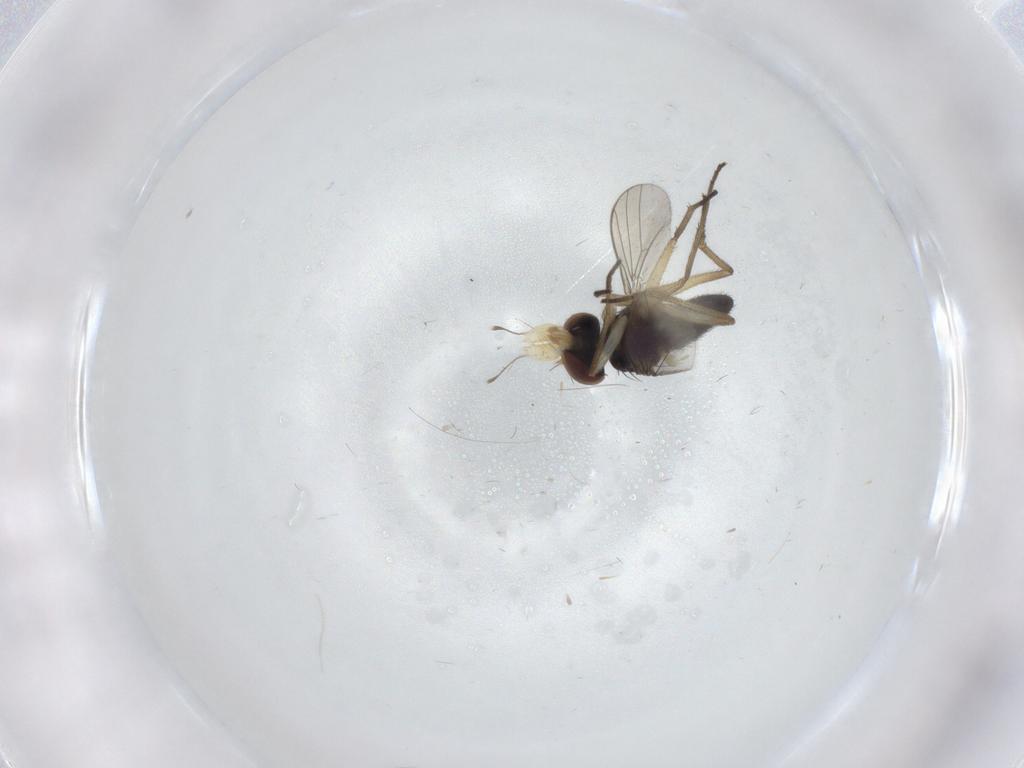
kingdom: Animalia
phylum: Arthropoda
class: Insecta
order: Diptera
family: Dolichopodidae
